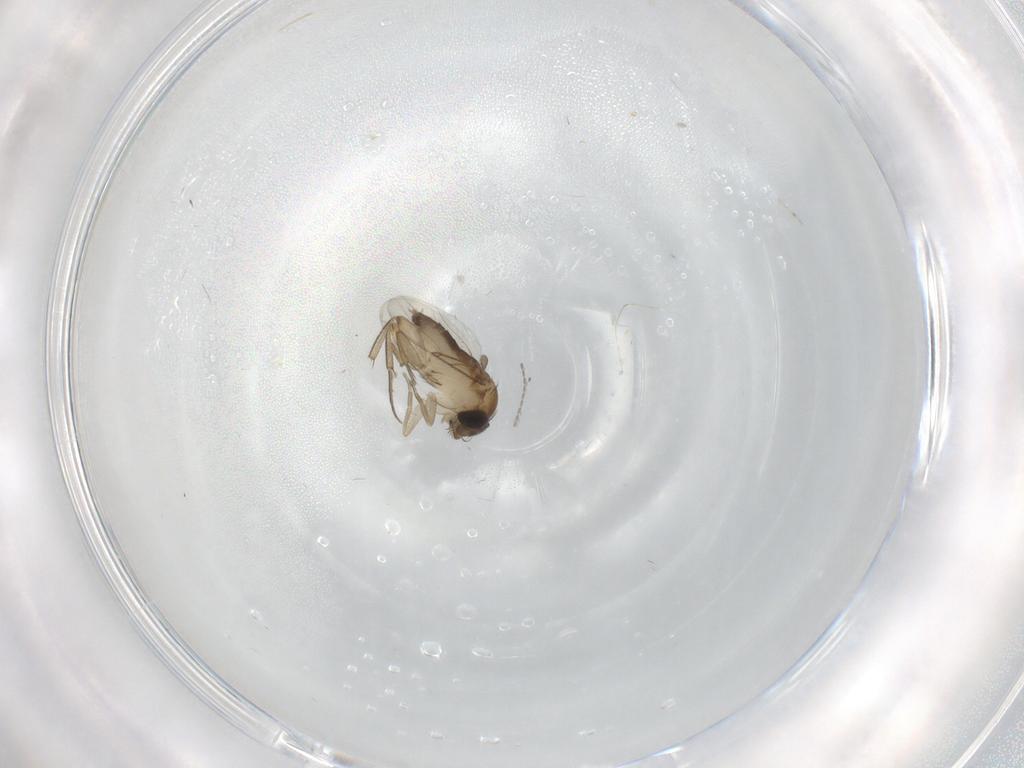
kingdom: Animalia
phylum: Arthropoda
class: Insecta
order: Diptera
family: Phoridae
